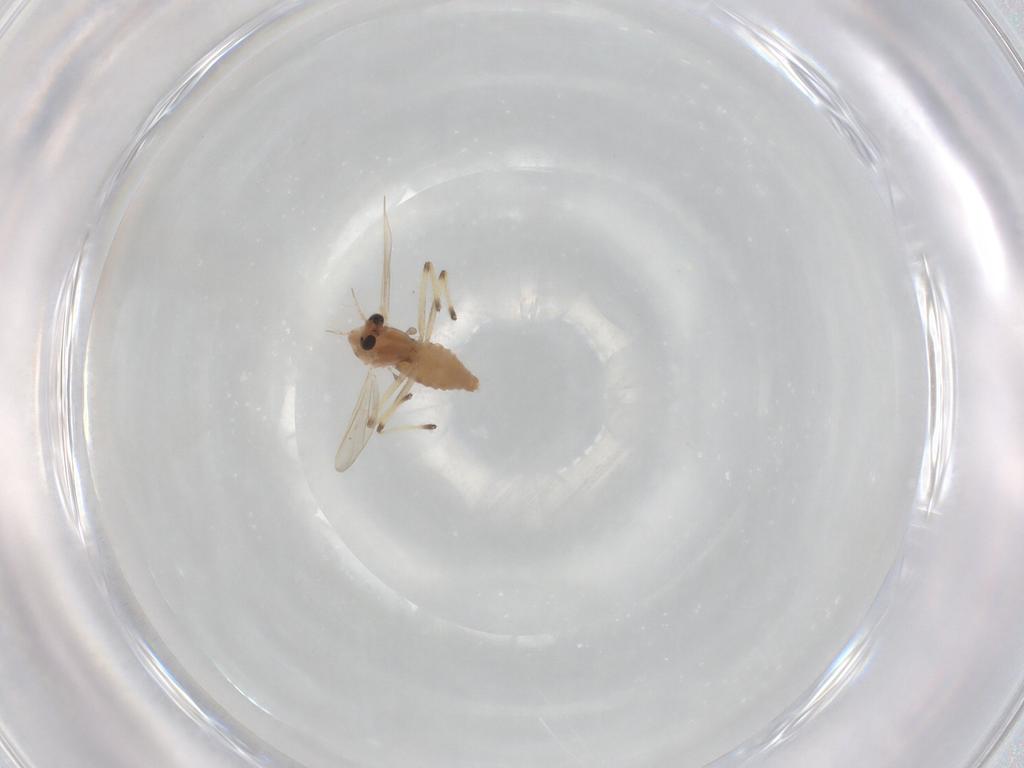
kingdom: Animalia
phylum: Arthropoda
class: Insecta
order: Diptera
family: Chironomidae
